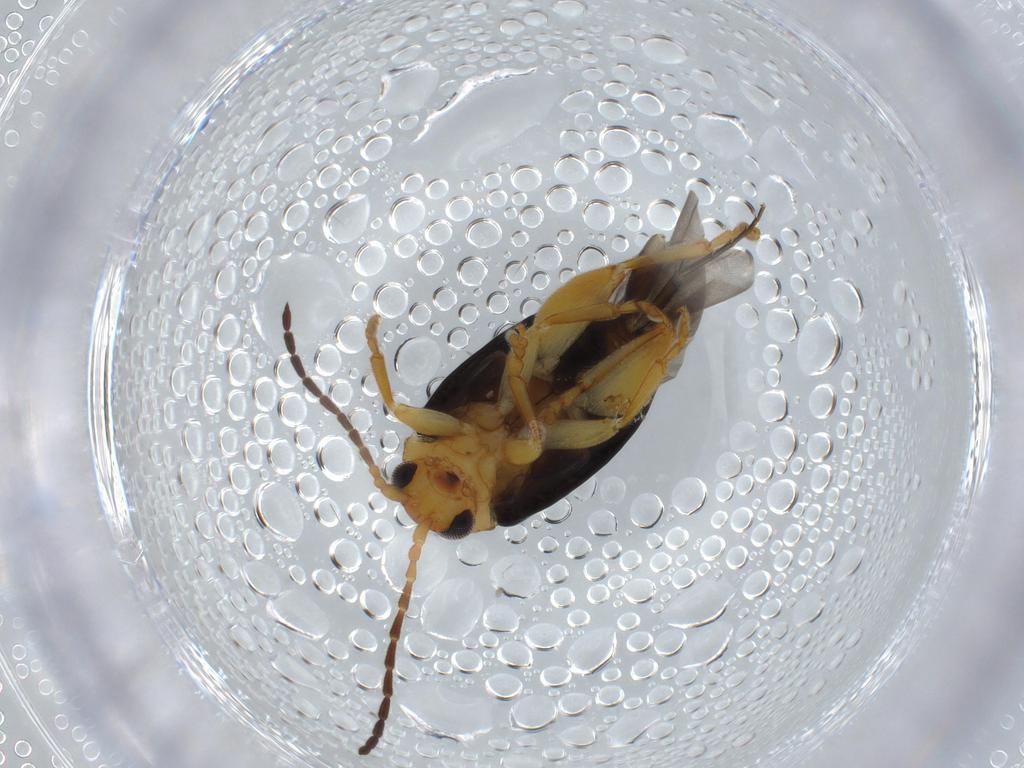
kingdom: Animalia
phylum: Arthropoda
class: Insecta
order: Coleoptera
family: Chrysomelidae
